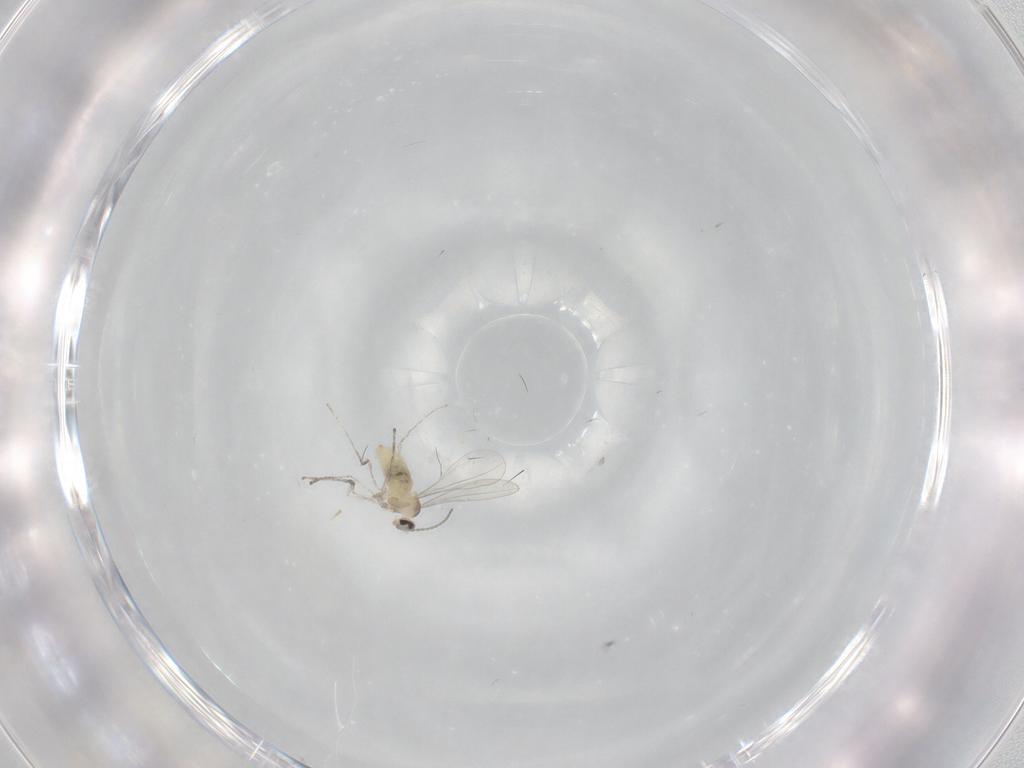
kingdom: Animalia
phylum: Arthropoda
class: Insecta
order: Diptera
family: Cecidomyiidae
